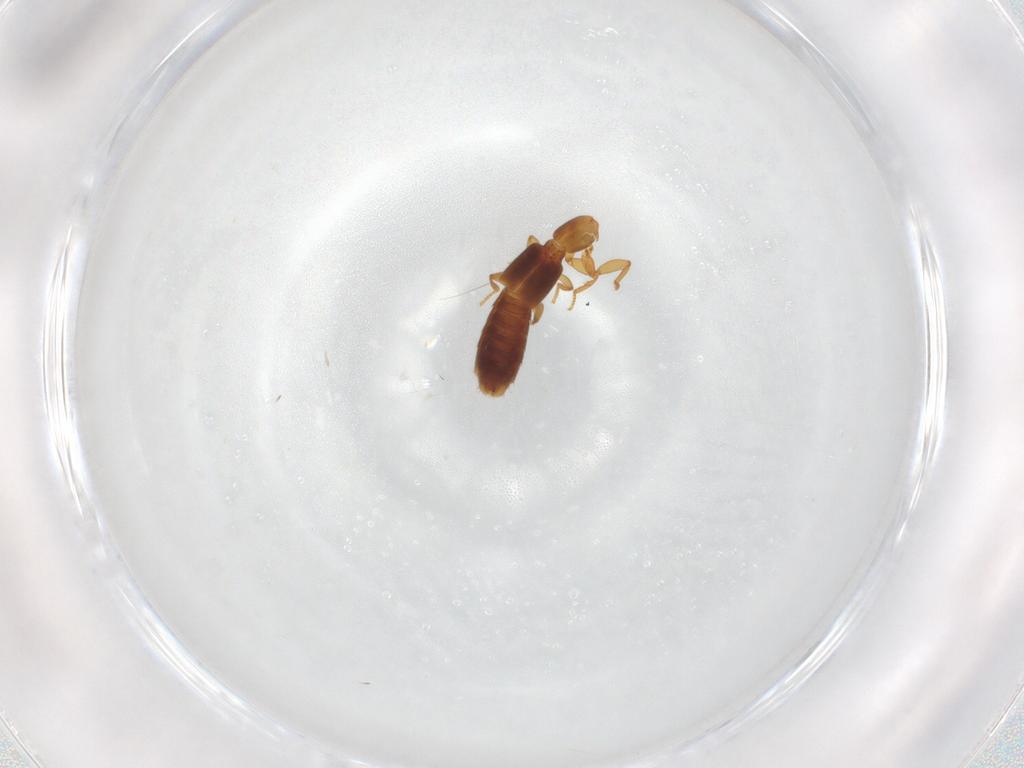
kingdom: Animalia
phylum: Arthropoda
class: Insecta
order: Coleoptera
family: Staphylinidae
